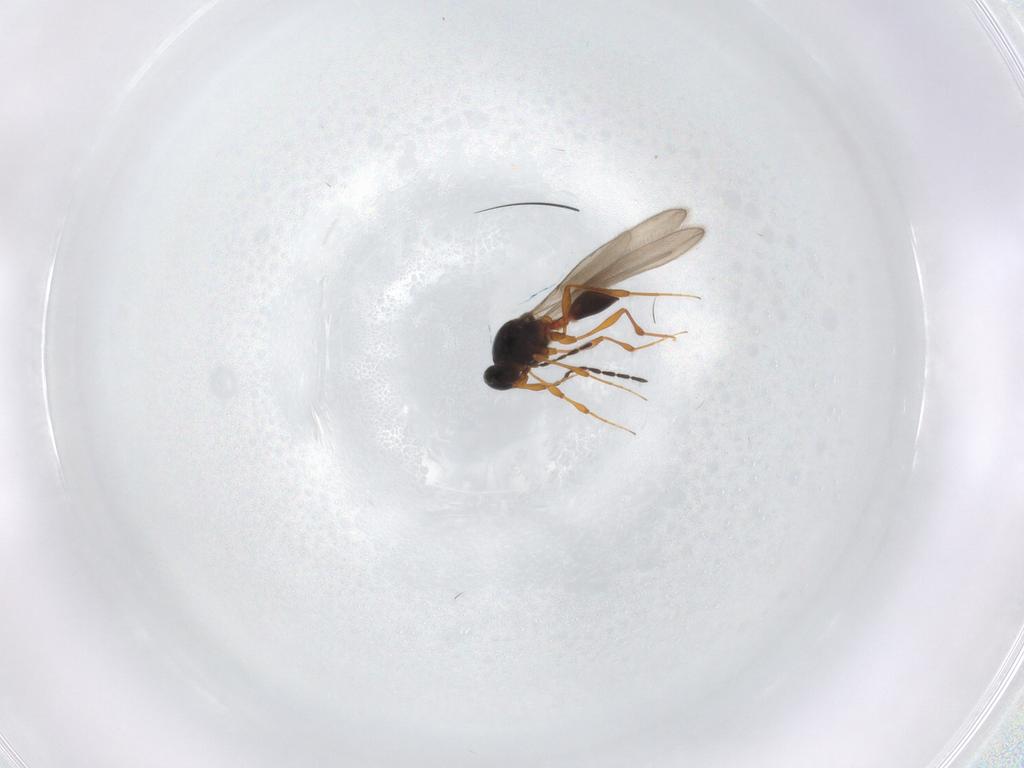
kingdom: Animalia
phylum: Arthropoda
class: Insecta
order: Hymenoptera
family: Platygastridae
